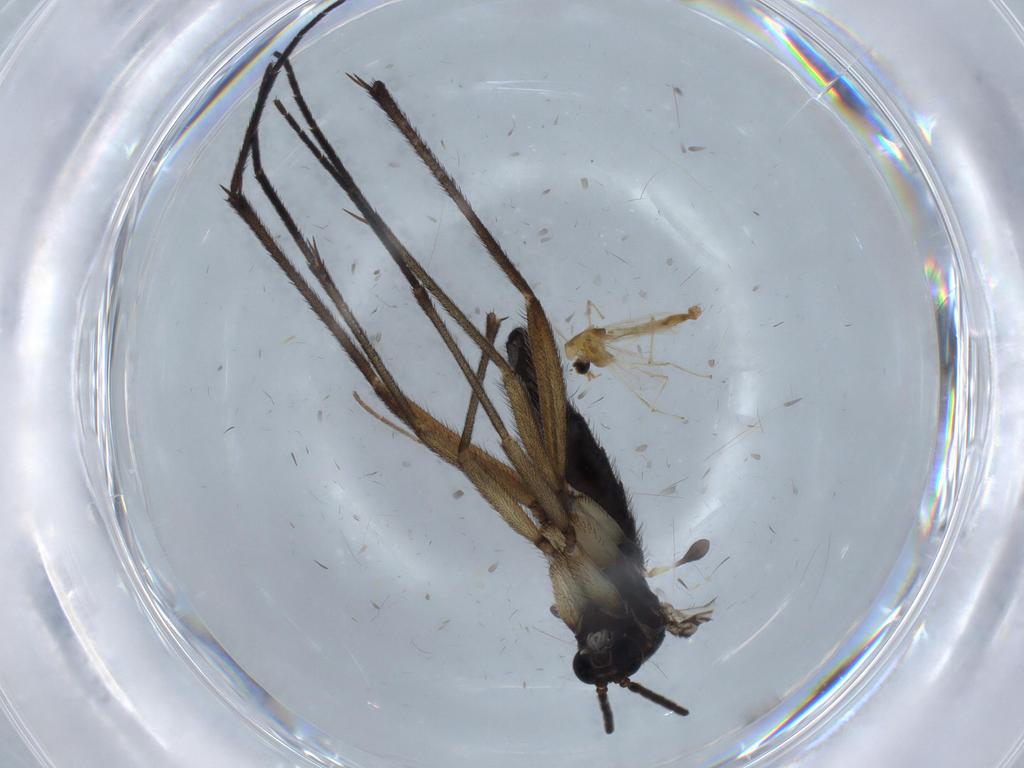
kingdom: Animalia
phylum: Arthropoda
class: Insecta
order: Diptera
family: Sciaridae
